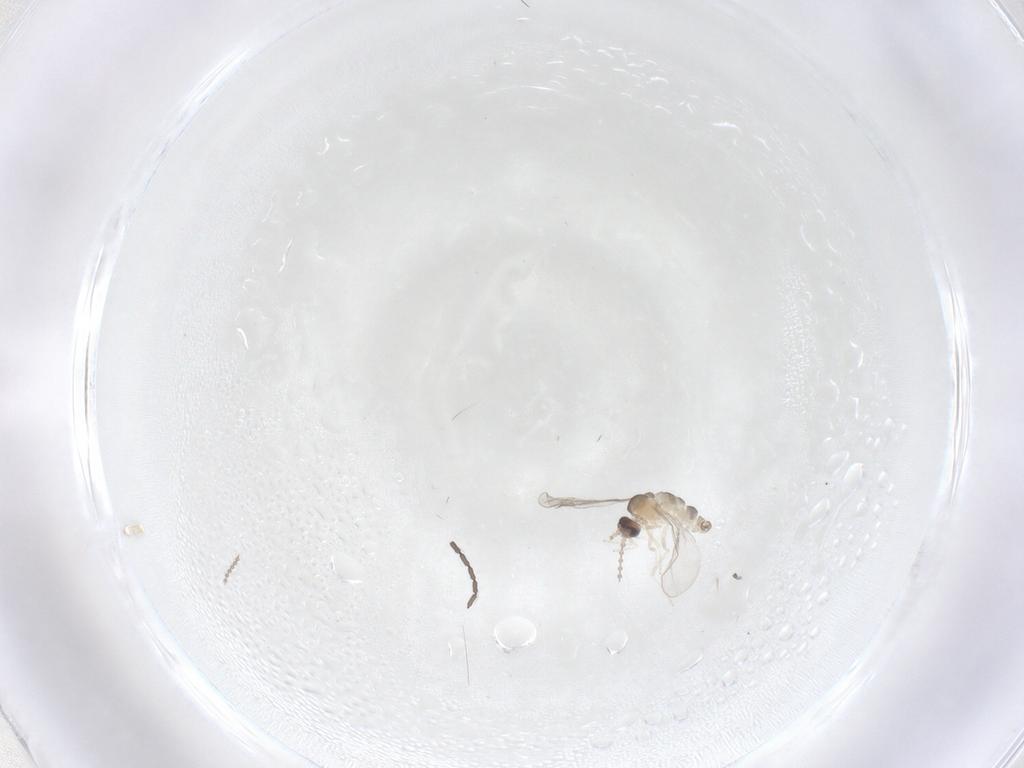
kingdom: Animalia
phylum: Arthropoda
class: Insecta
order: Diptera
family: Cecidomyiidae
